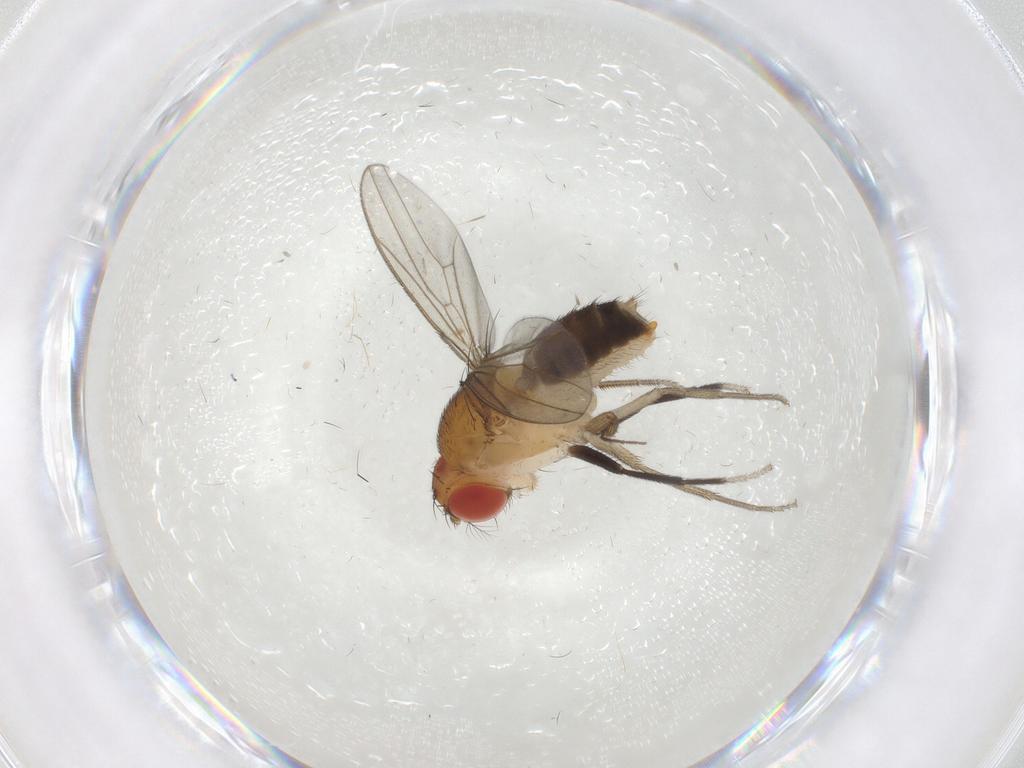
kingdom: Animalia
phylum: Arthropoda
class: Insecta
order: Diptera
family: Drosophilidae
